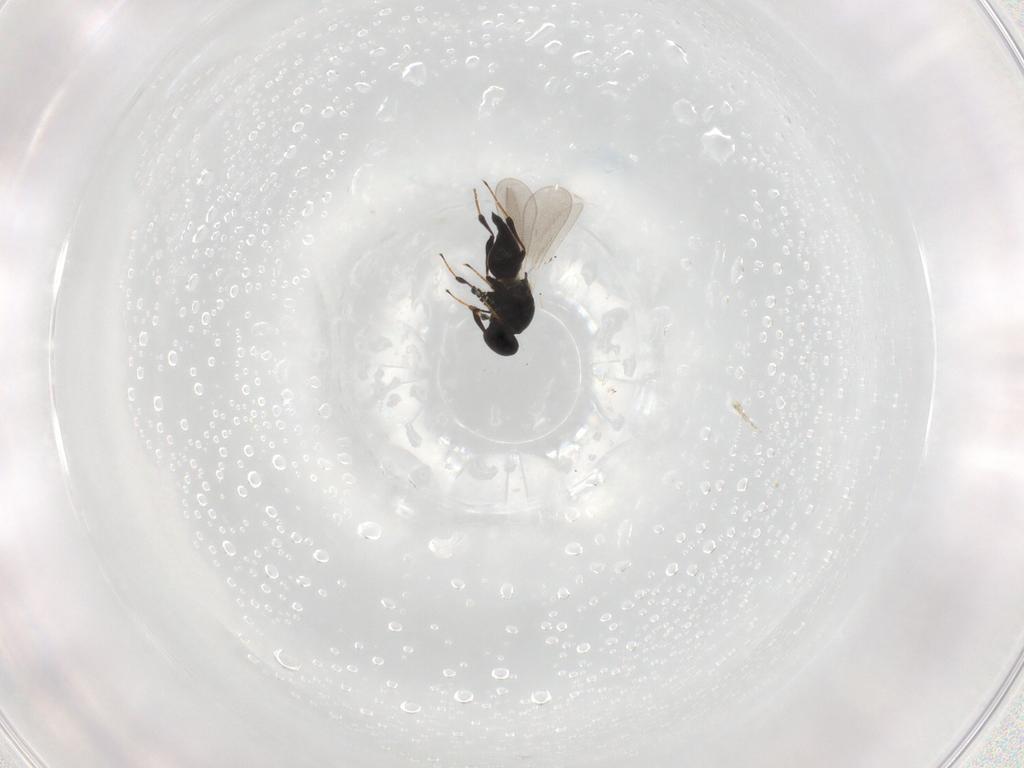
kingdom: Animalia
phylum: Arthropoda
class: Insecta
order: Hymenoptera
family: Platygastridae
